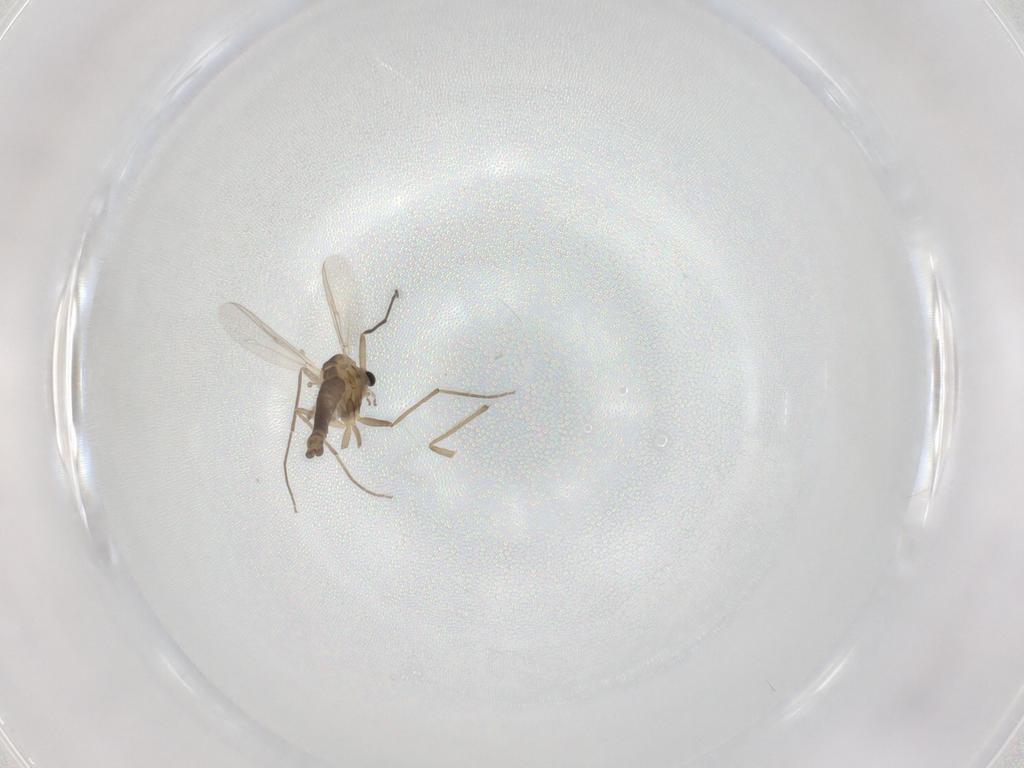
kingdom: Animalia
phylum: Arthropoda
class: Insecta
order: Diptera
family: Chironomidae
